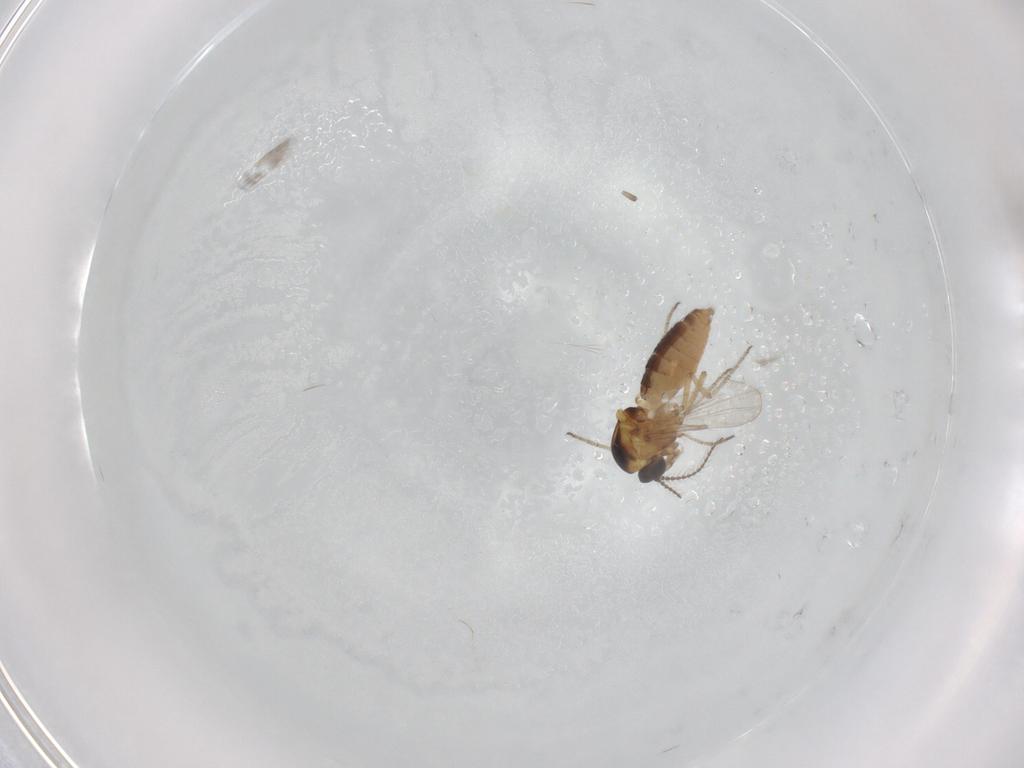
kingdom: Animalia
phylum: Arthropoda
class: Insecta
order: Diptera
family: Ceratopogonidae
